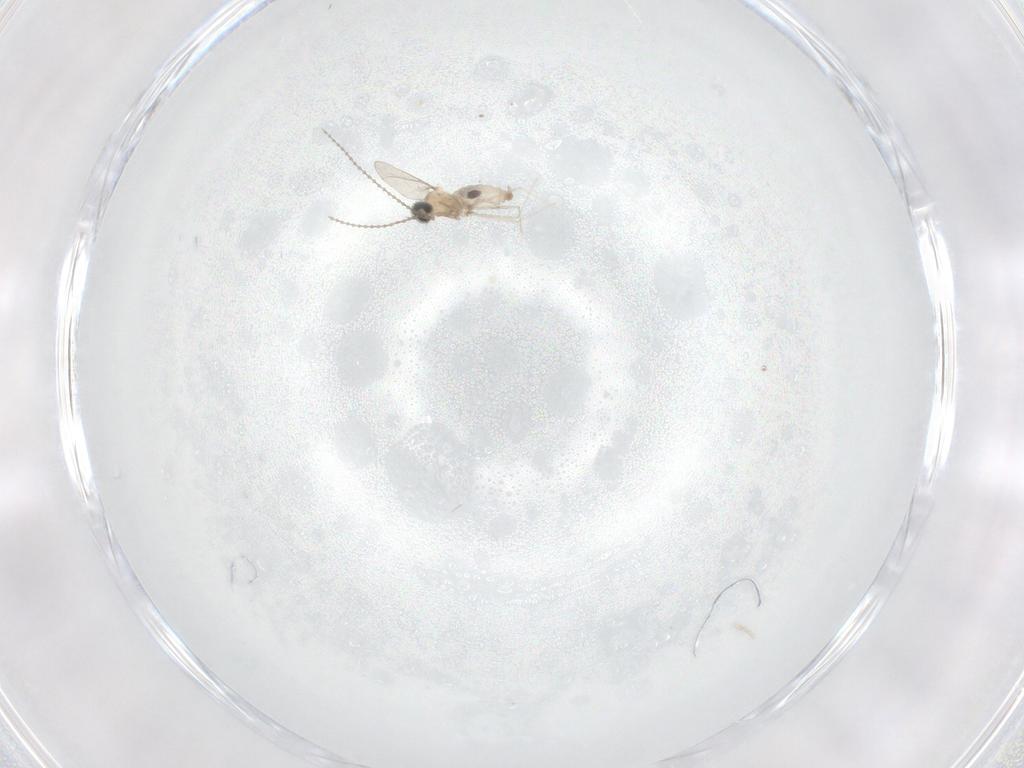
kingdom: Animalia
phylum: Arthropoda
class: Insecta
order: Diptera
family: Cecidomyiidae
